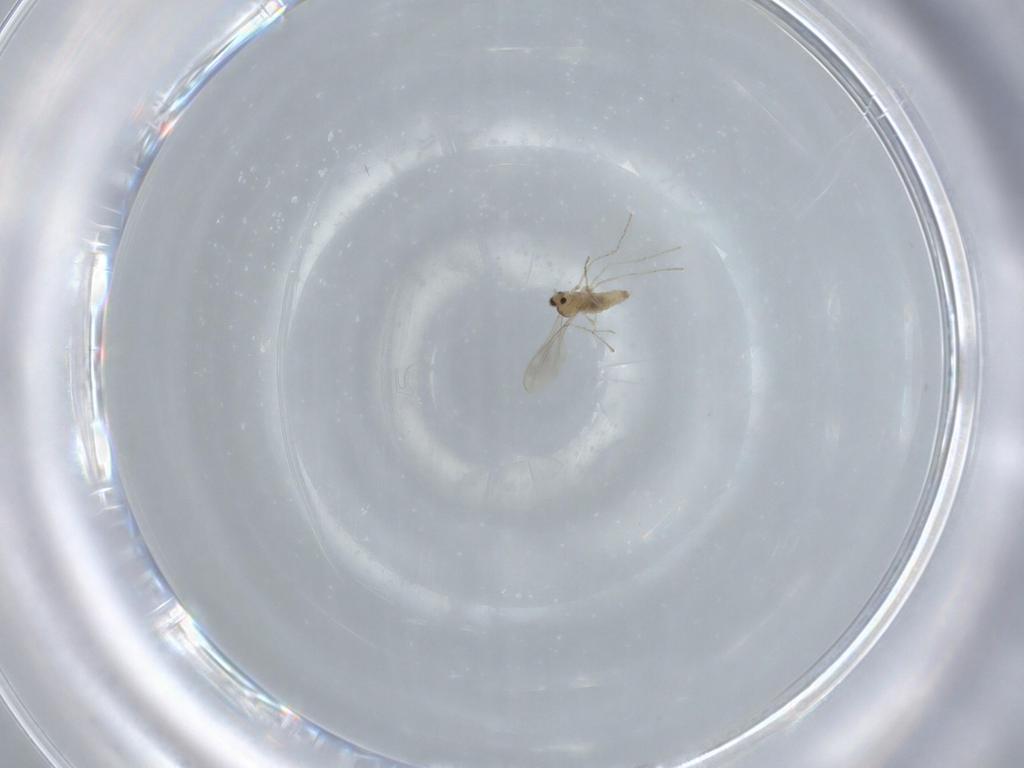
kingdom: Animalia
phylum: Arthropoda
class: Insecta
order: Diptera
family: Cecidomyiidae
